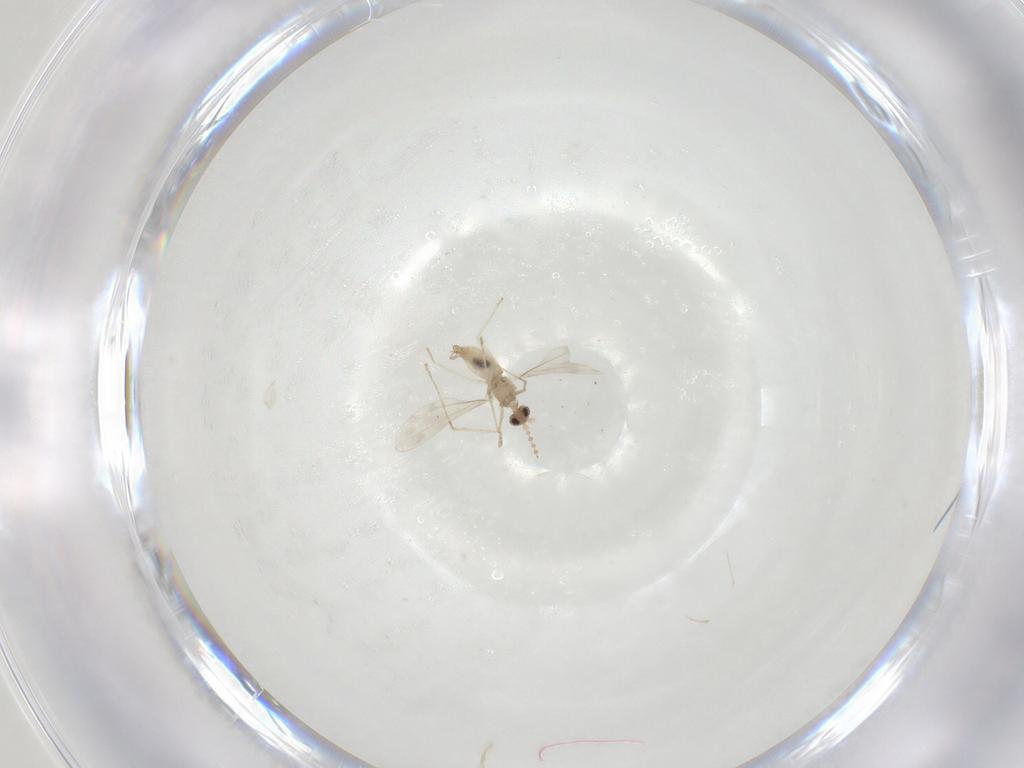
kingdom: Animalia
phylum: Arthropoda
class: Insecta
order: Diptera
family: Cecidomyiidae
